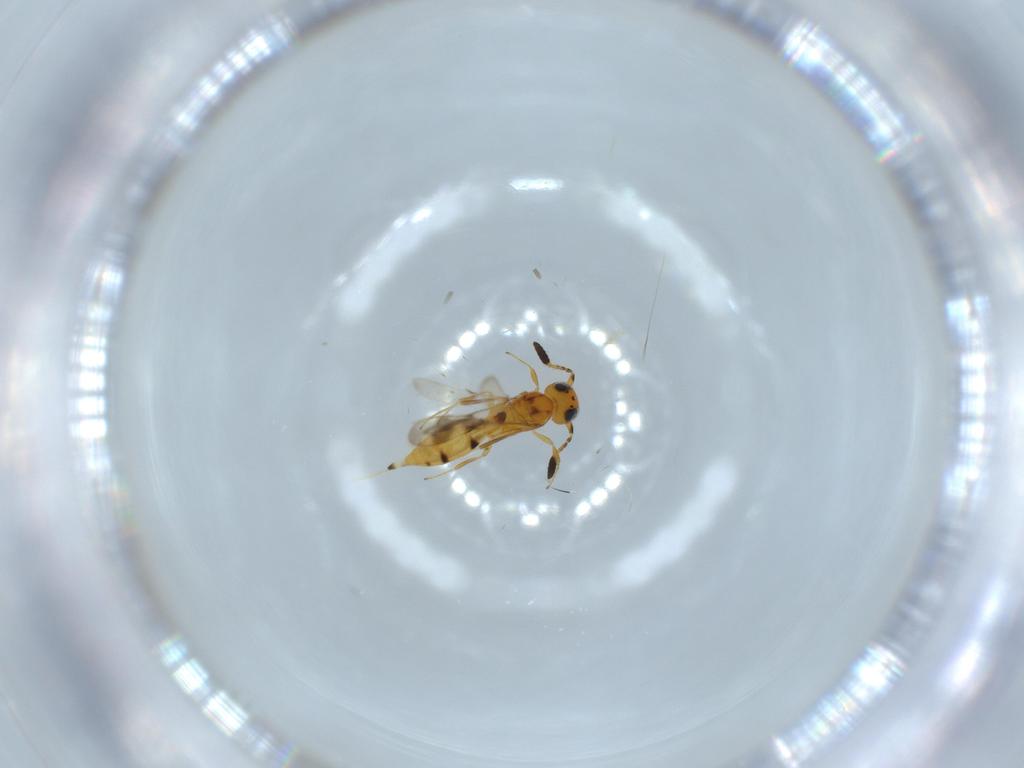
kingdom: Animalia
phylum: Arthropoda
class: Insecta
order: Hymenoptera
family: Scelionidae
